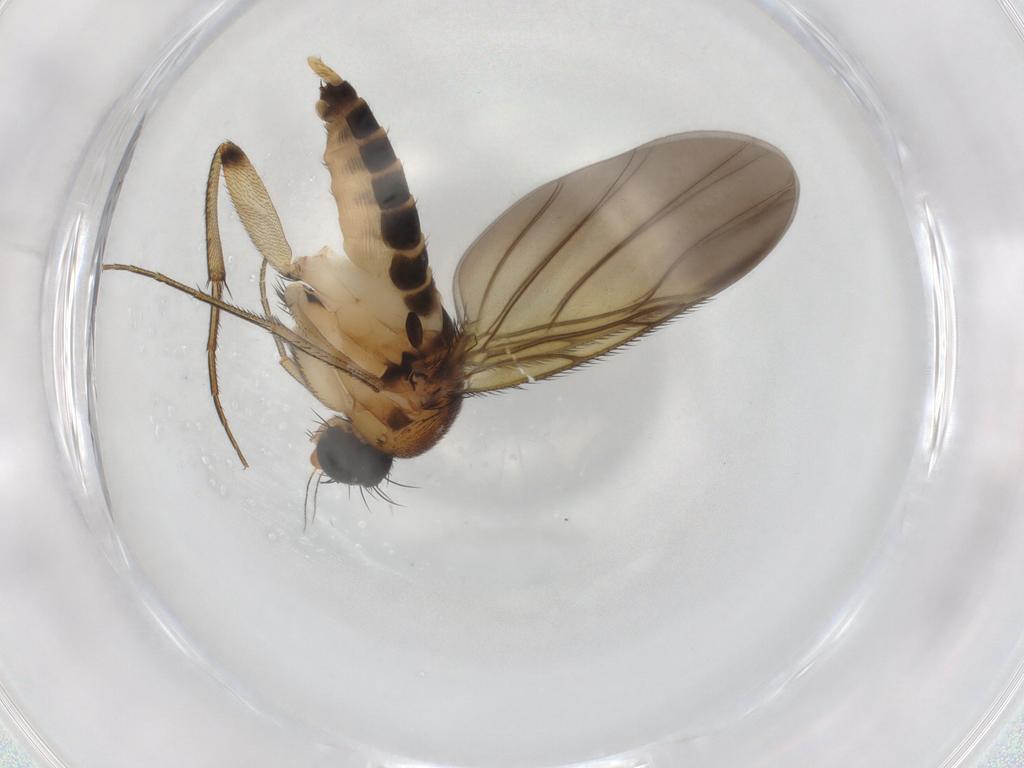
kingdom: Animalia
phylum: Arthropoda
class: Insecta
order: Diptera
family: Phoridae
